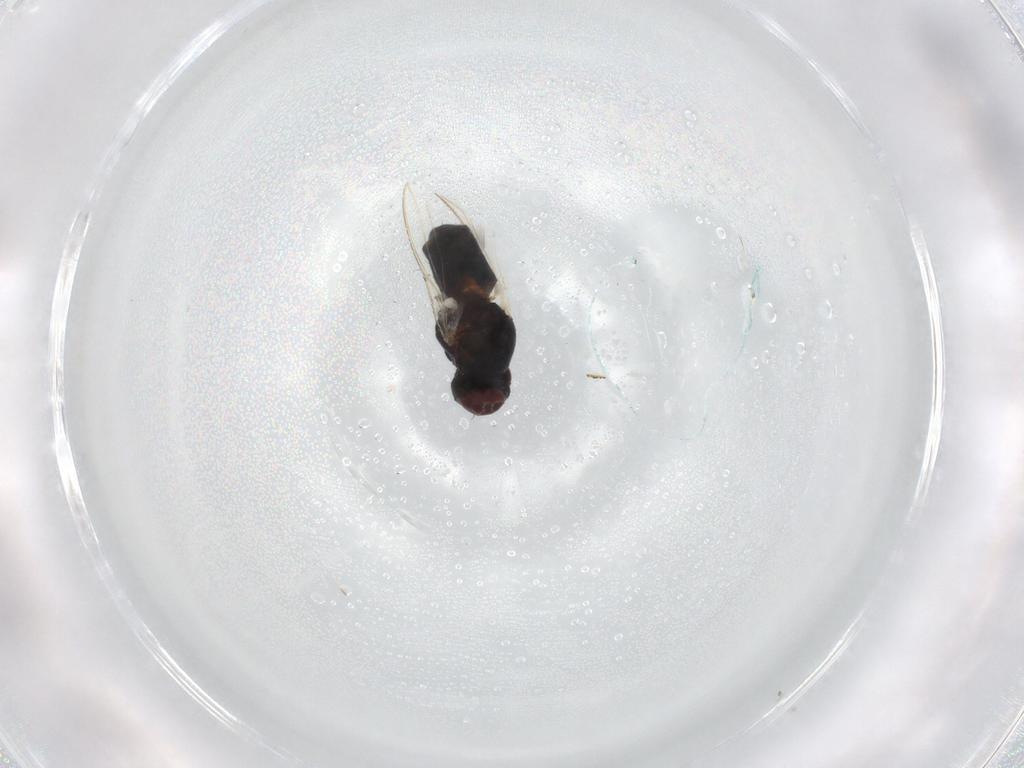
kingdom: Animalia
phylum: Arthropoda
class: Insecta
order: Diptera
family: Carnidae
